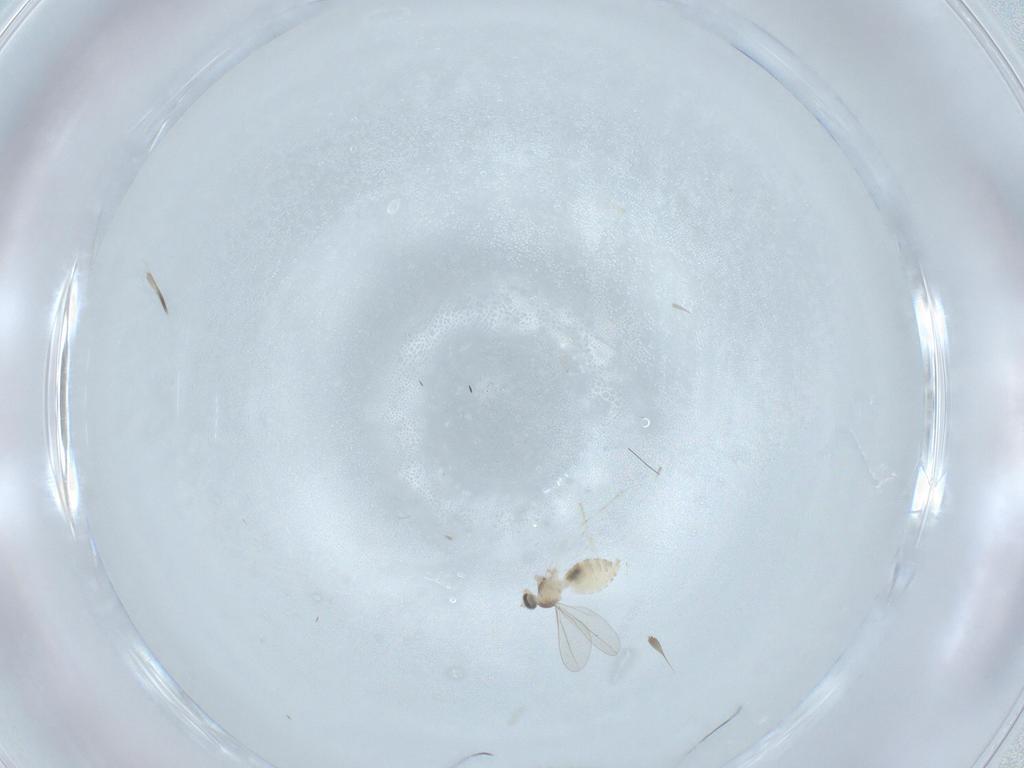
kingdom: Animalia
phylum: Arthropoda
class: Insecta
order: Diptera
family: Cecidomyiidae
